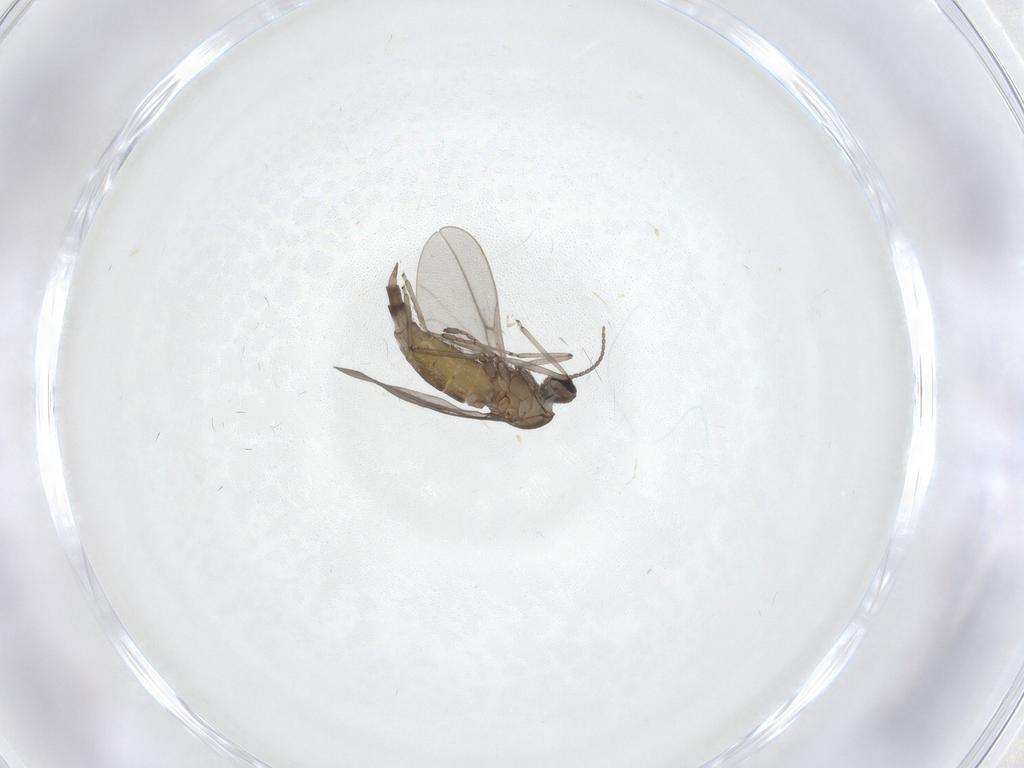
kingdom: Animalia
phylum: Arthropoda
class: Insecta
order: Diptera
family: Cecidomyiidae
